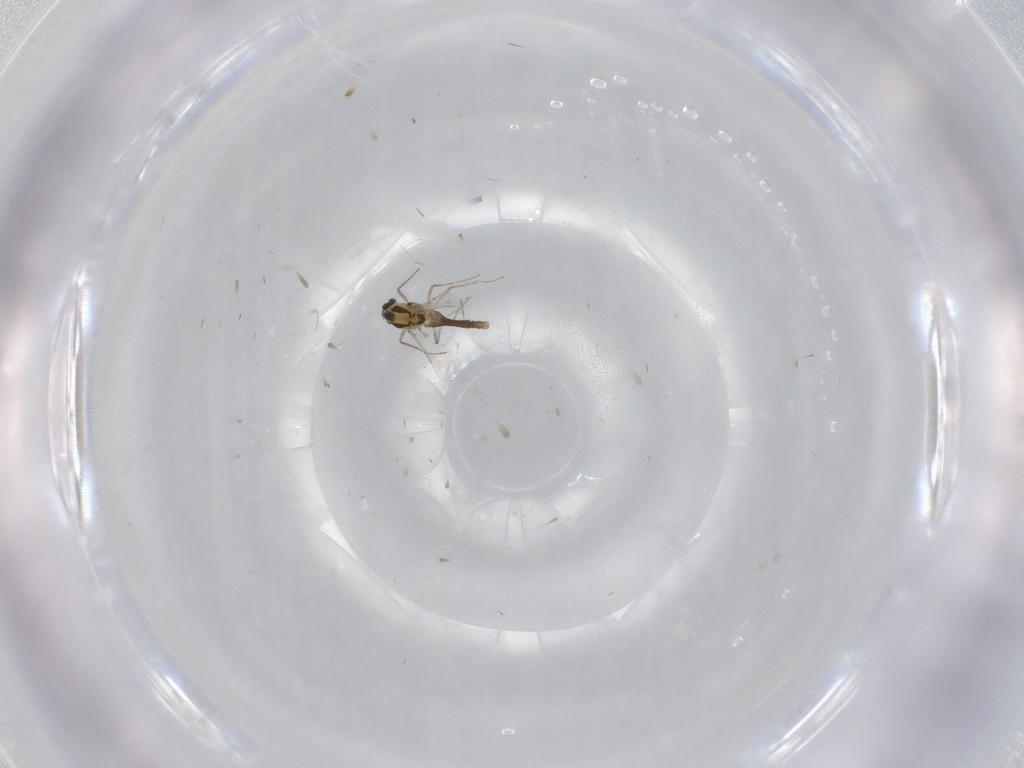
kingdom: Animalia
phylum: Arthropoda
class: Insecta
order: Diptera
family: Chironomidae
